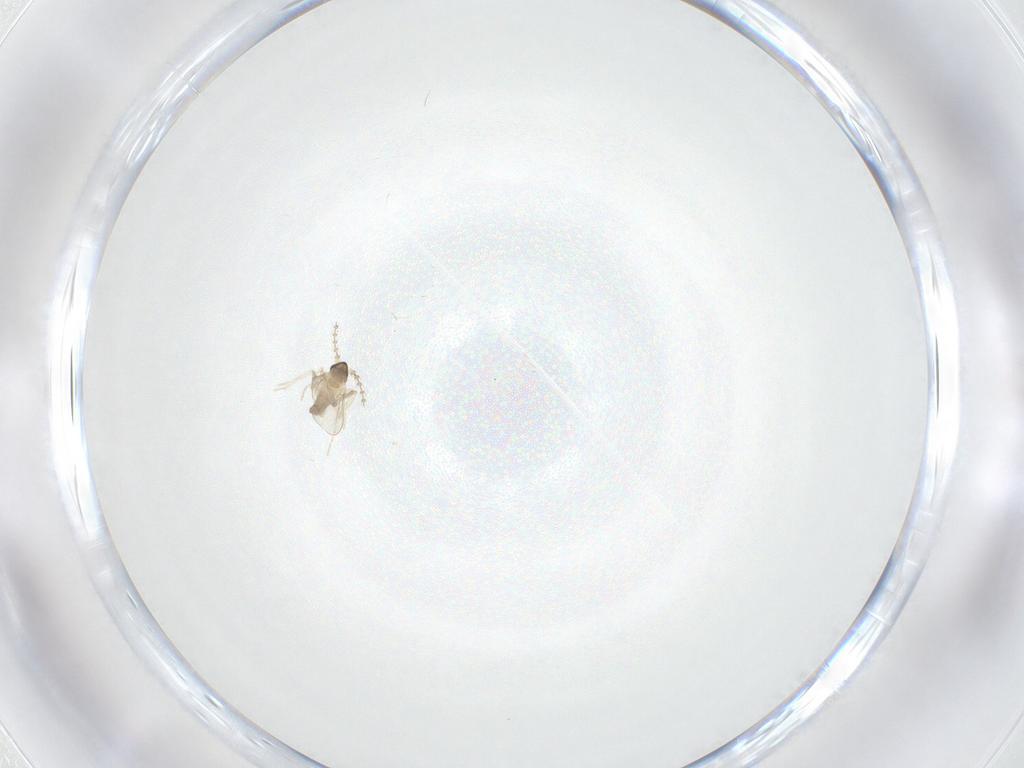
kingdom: Animalia
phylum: Arthropoda
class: Insecta
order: Diptera
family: Cecidomyiidae
